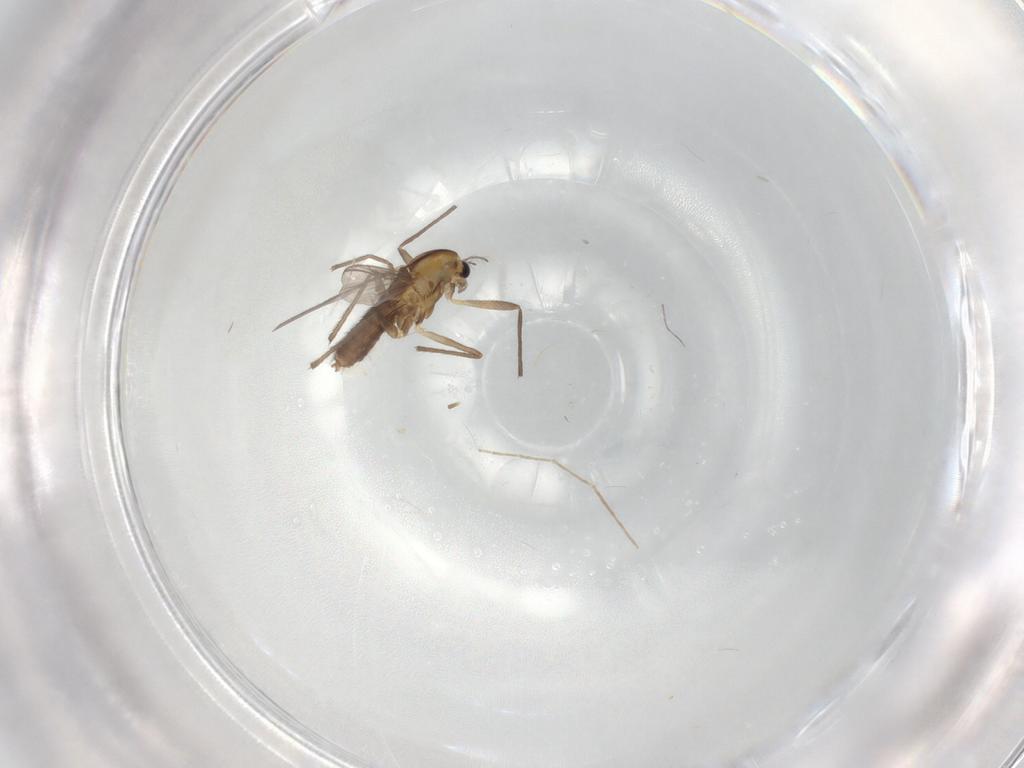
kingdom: Animalia
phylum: Arthropoda
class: Insecta
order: Diptera
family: Chironomidae
